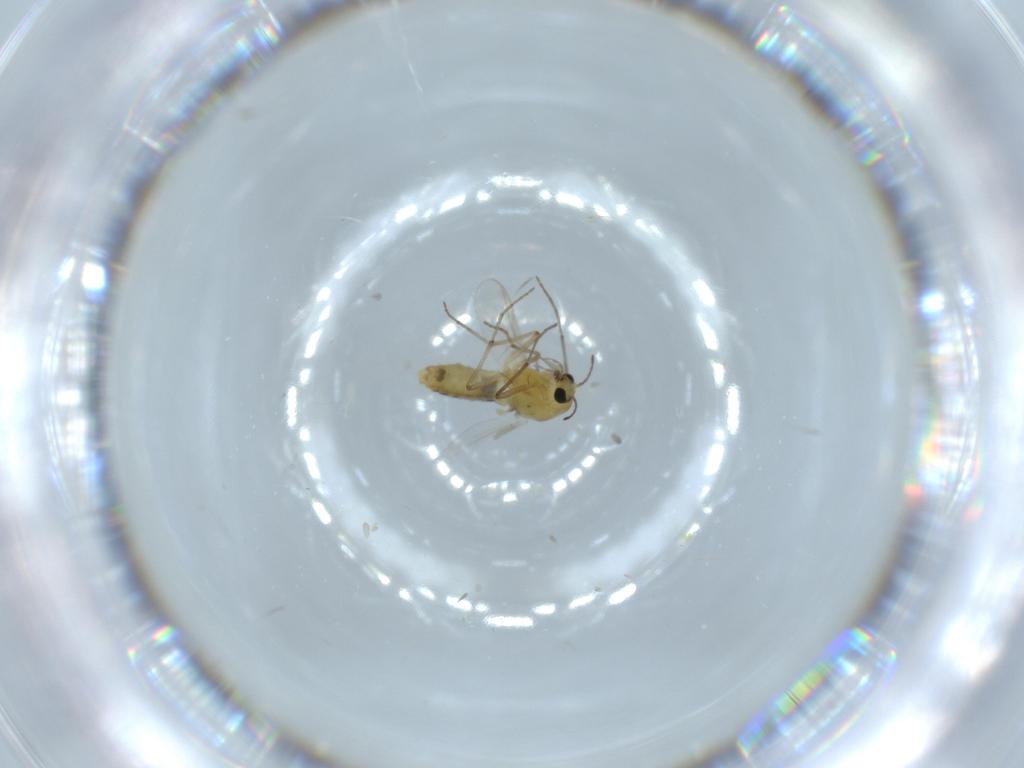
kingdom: Animalia
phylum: Arthropoda
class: Insecta
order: Diptera
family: Chironomidae
